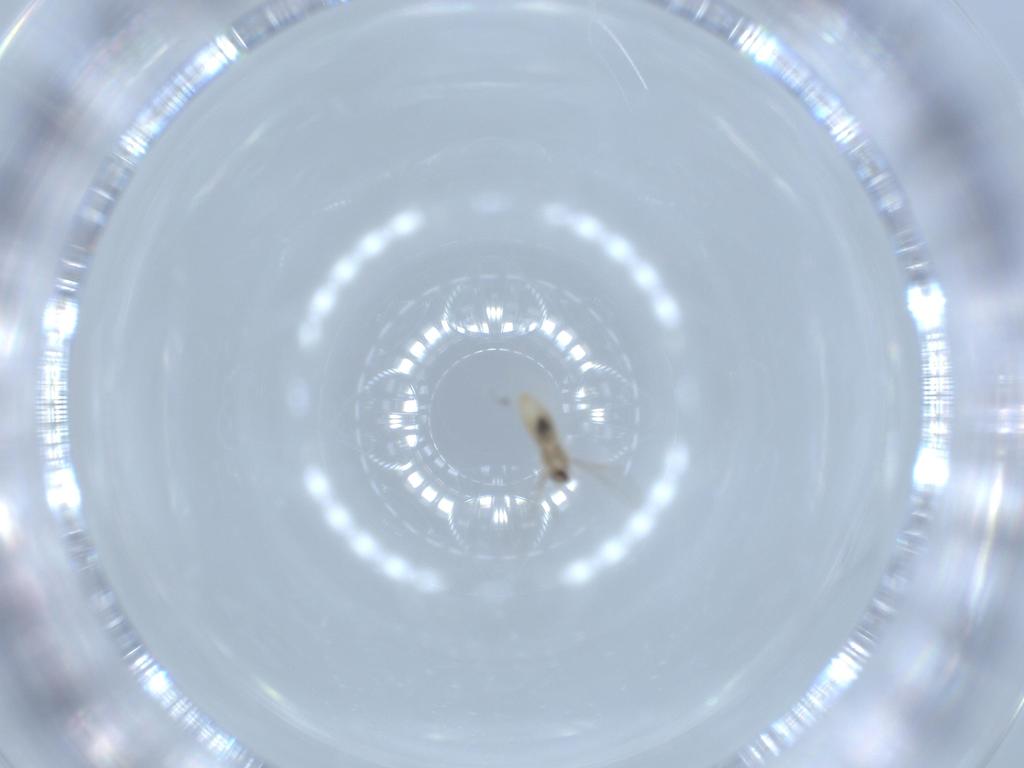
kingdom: Animalia
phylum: Arthropoda
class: Insecta
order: Diptera
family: Cecidomyiidae
